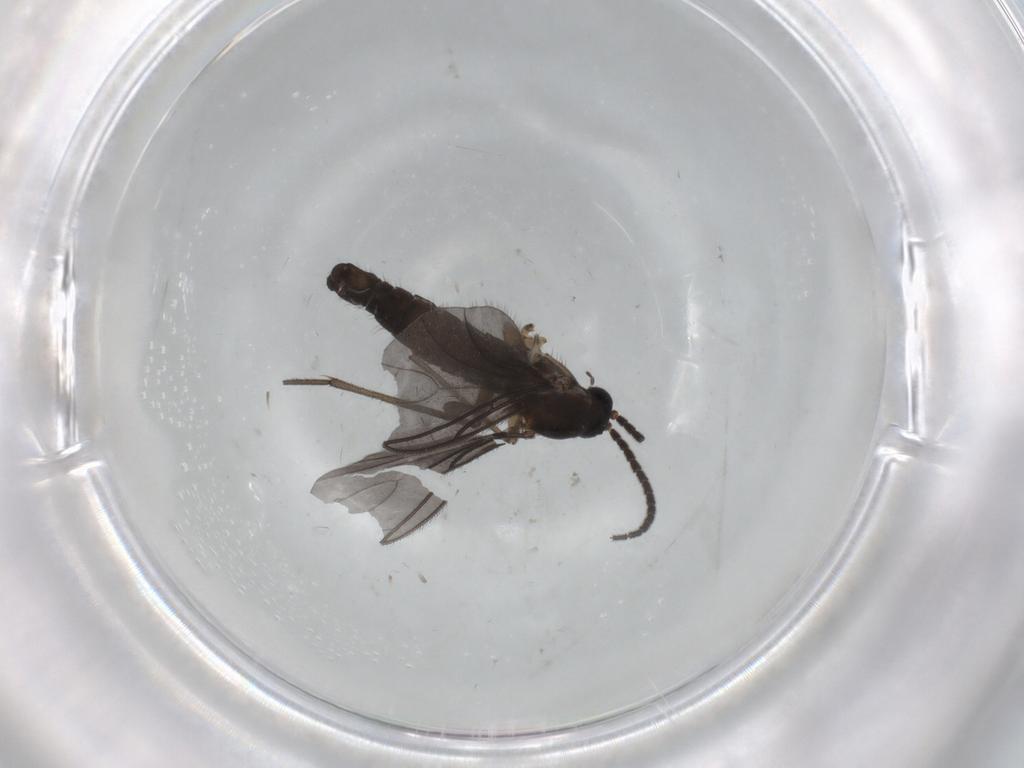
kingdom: Animalia
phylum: Arthropoda
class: Insecta
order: Diptera
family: Sciaridae
